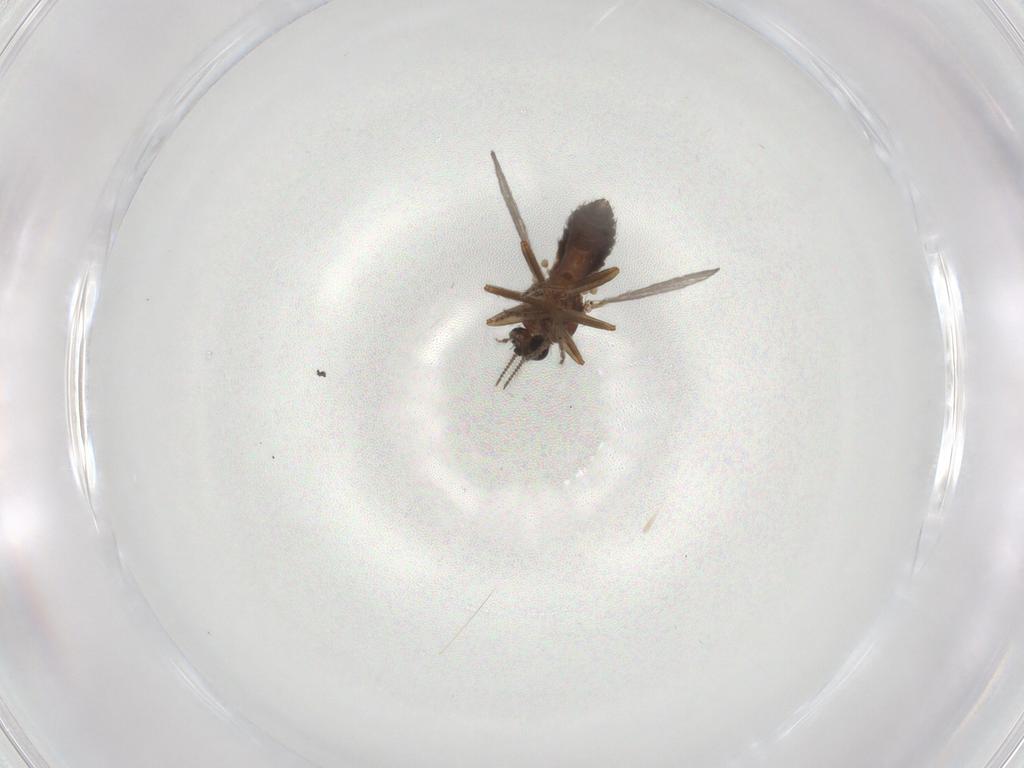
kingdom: Animalia
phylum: Arthropoda
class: Insecta
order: Diptera
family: Ceratopogonidae
